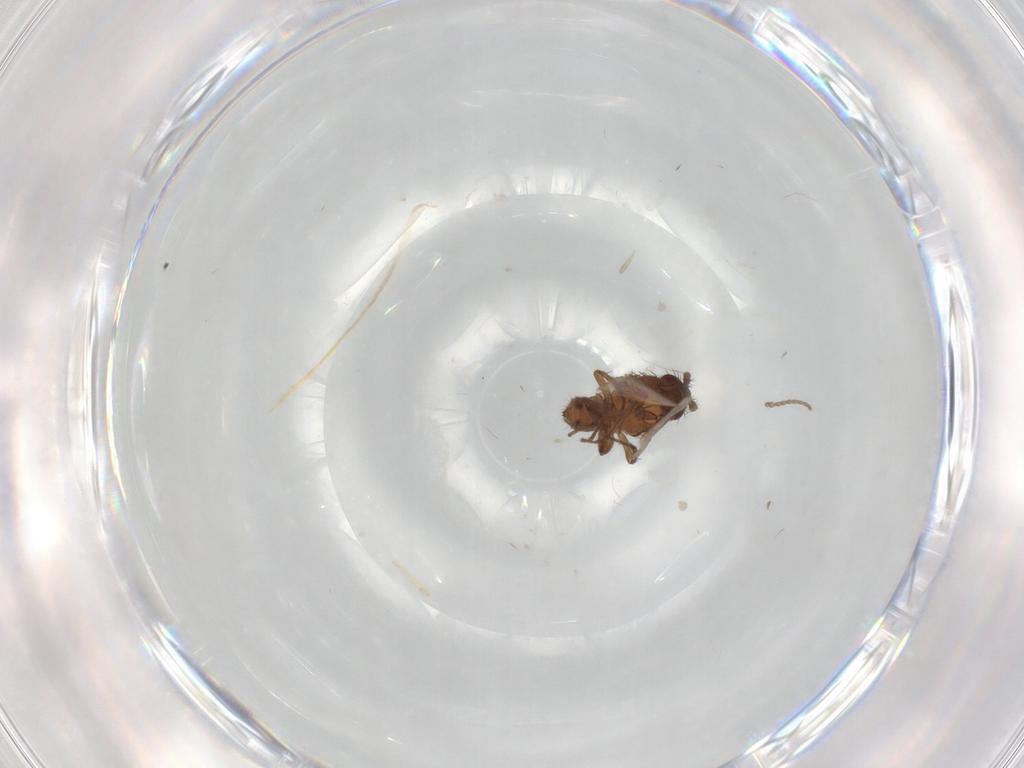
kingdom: Animalia
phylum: Arthropoda
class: Insecta
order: Diptera
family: Sphaeroceridae
